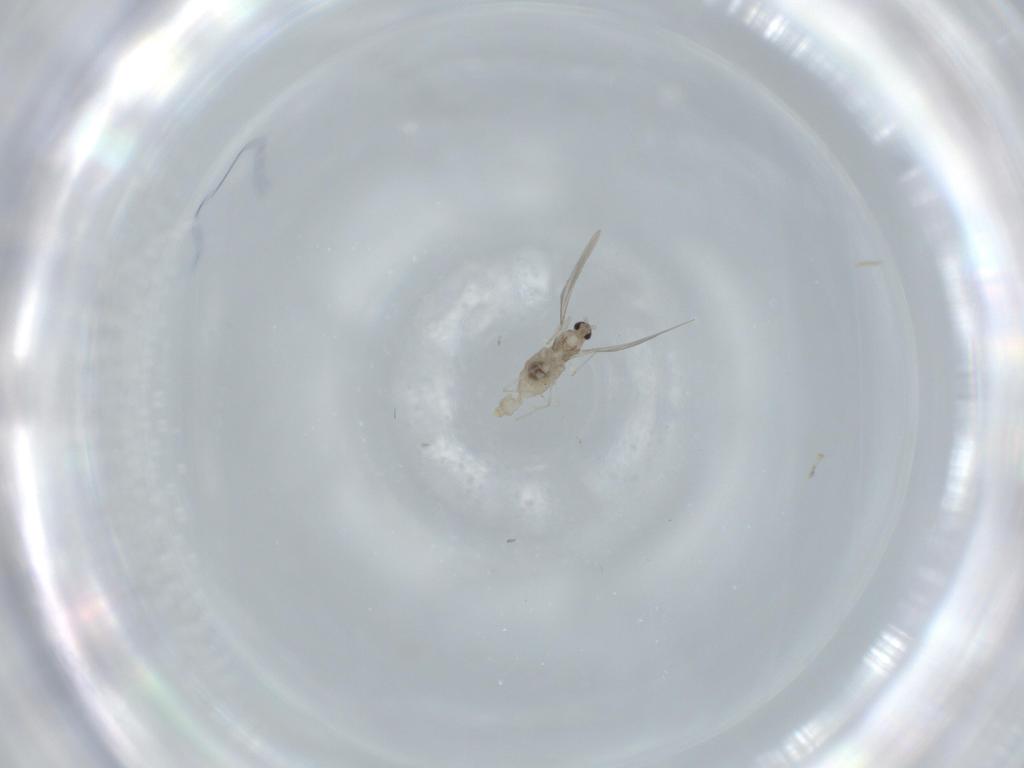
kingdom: Animalia
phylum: Arthropoda
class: Insecta
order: Diptera
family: Cecidomyiidae
